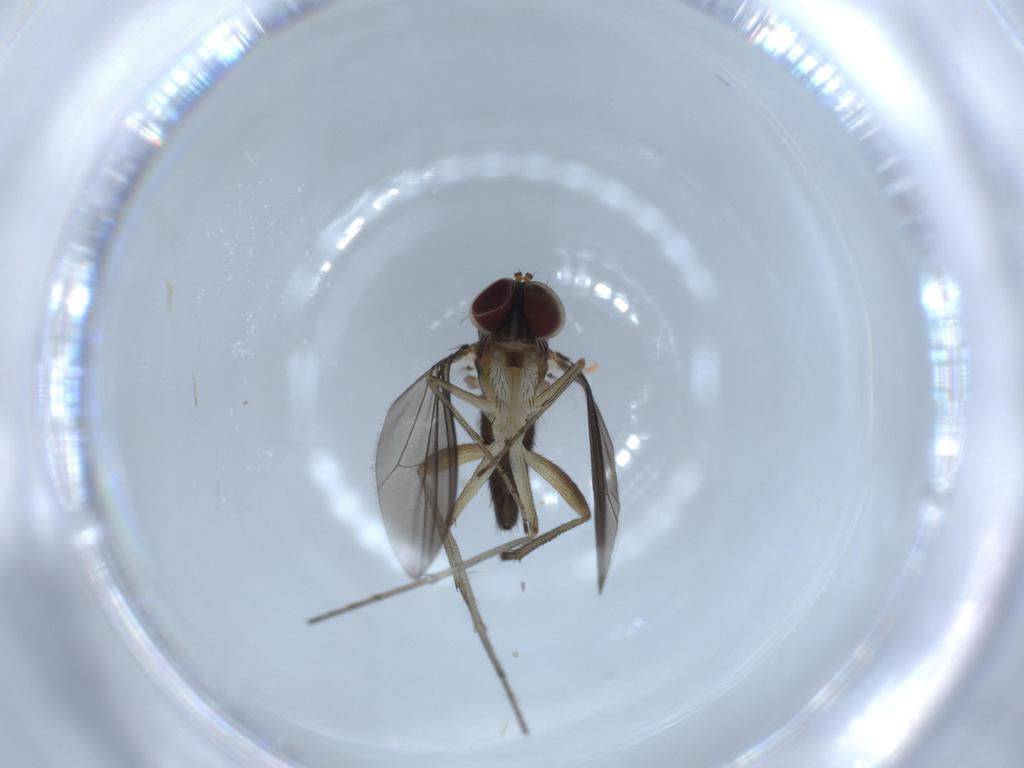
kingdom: Animalia
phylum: Arthropoda
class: Insecta
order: Diptera
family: Dolichopodidae
